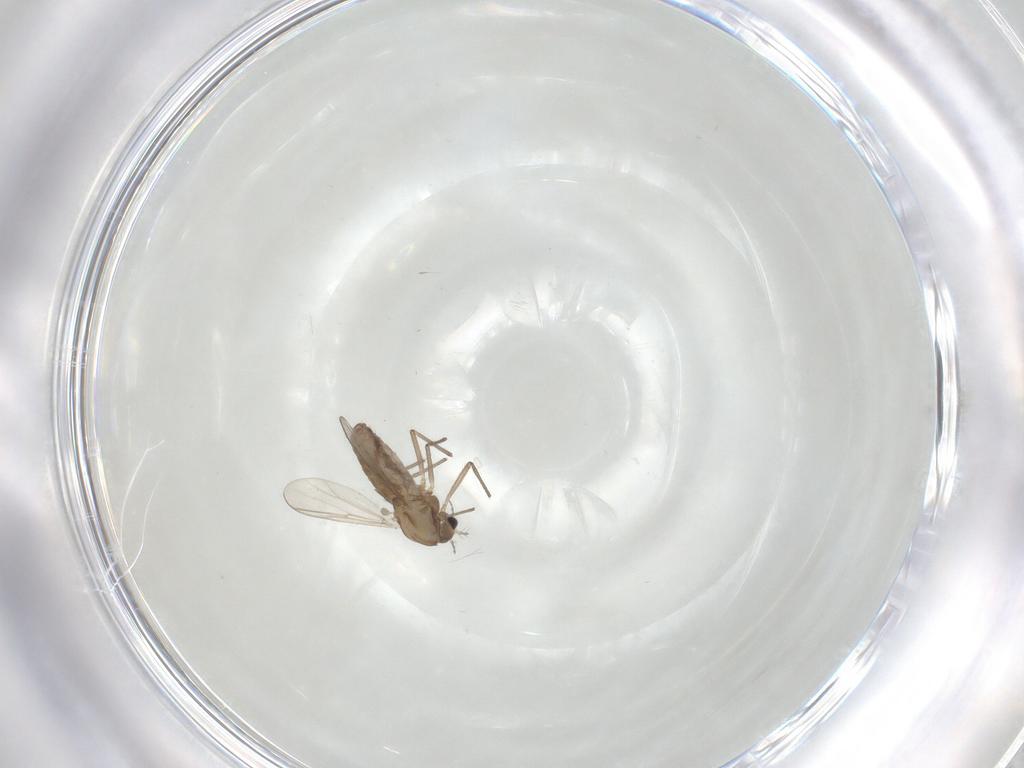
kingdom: Animalia
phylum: Arthropoda
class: Insecta
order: Diptera
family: Chironomidae
